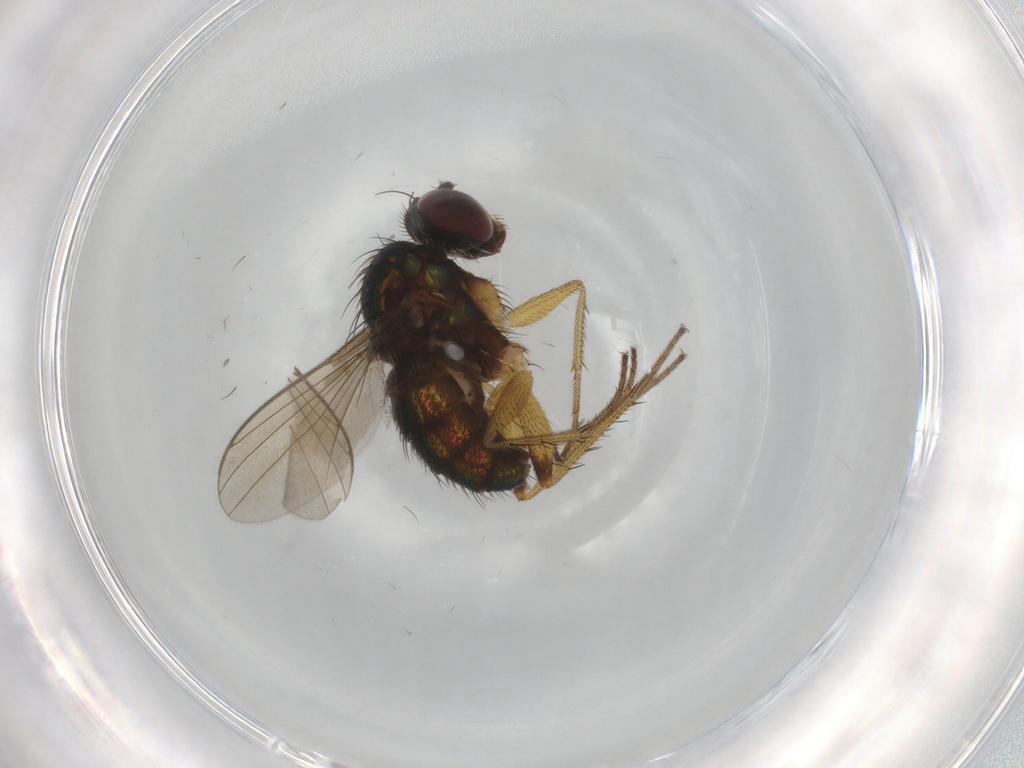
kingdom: Animalia
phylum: Arthropoda
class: Insecta
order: Diptera
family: Dolichopodidae
